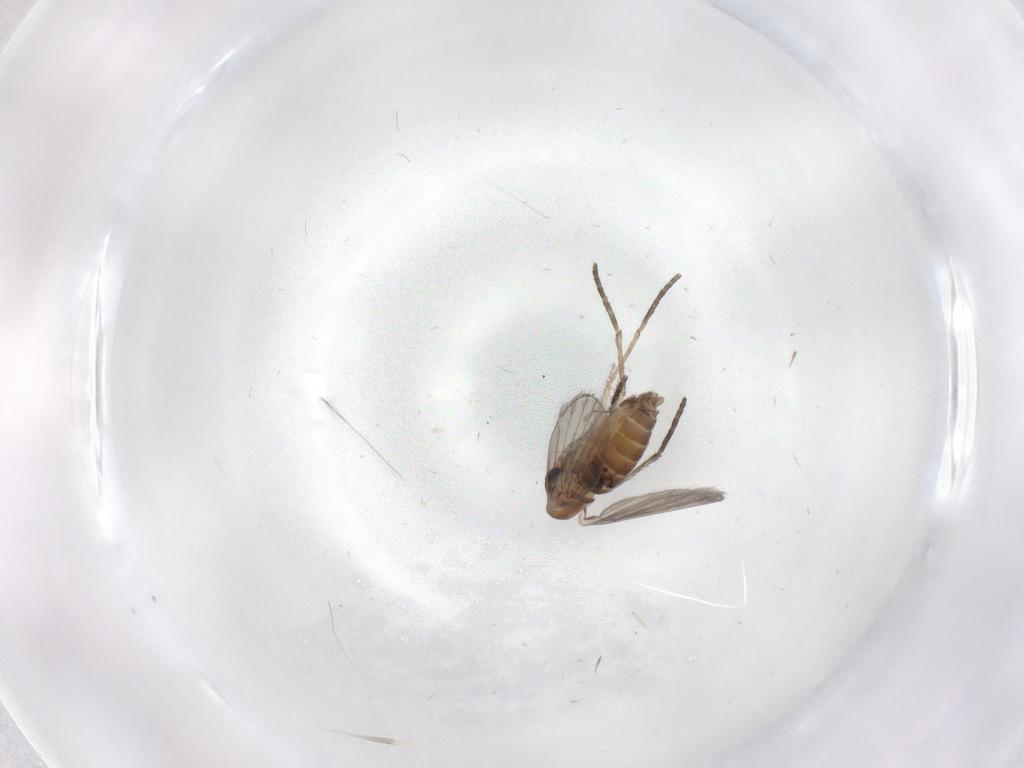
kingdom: Animalia
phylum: Arthropoda
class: Insecta
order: Diptera
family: Psychodidae
